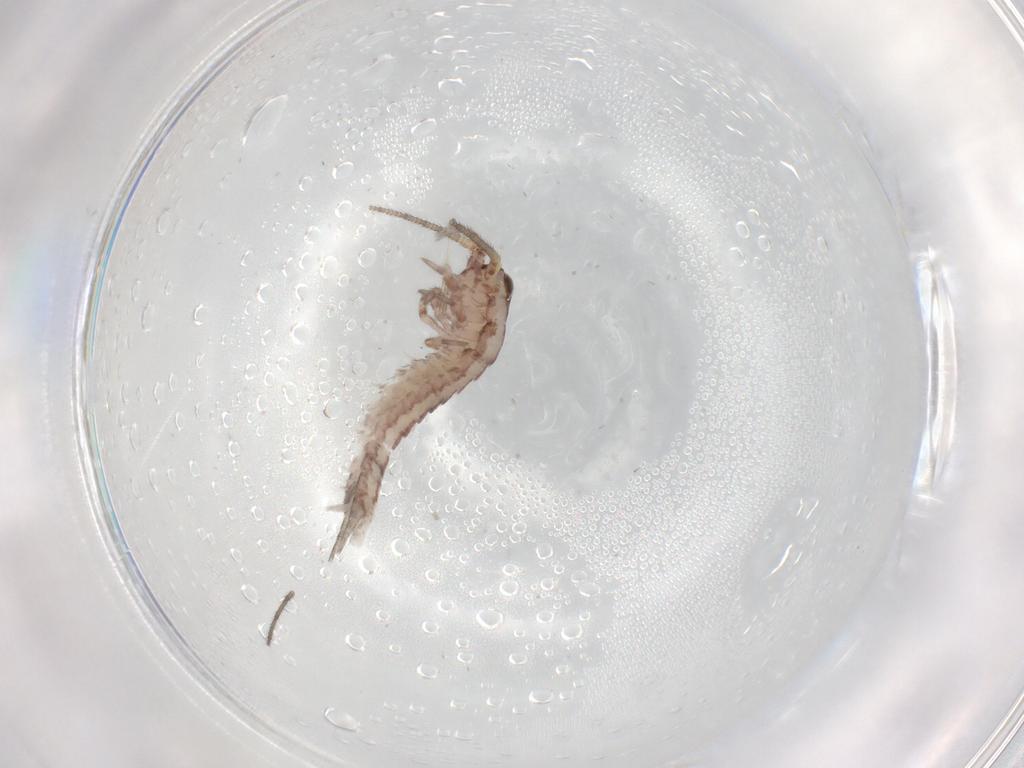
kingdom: Animalia
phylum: Arthropoda
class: Insecta
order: Archaeognatha
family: Machilidae
